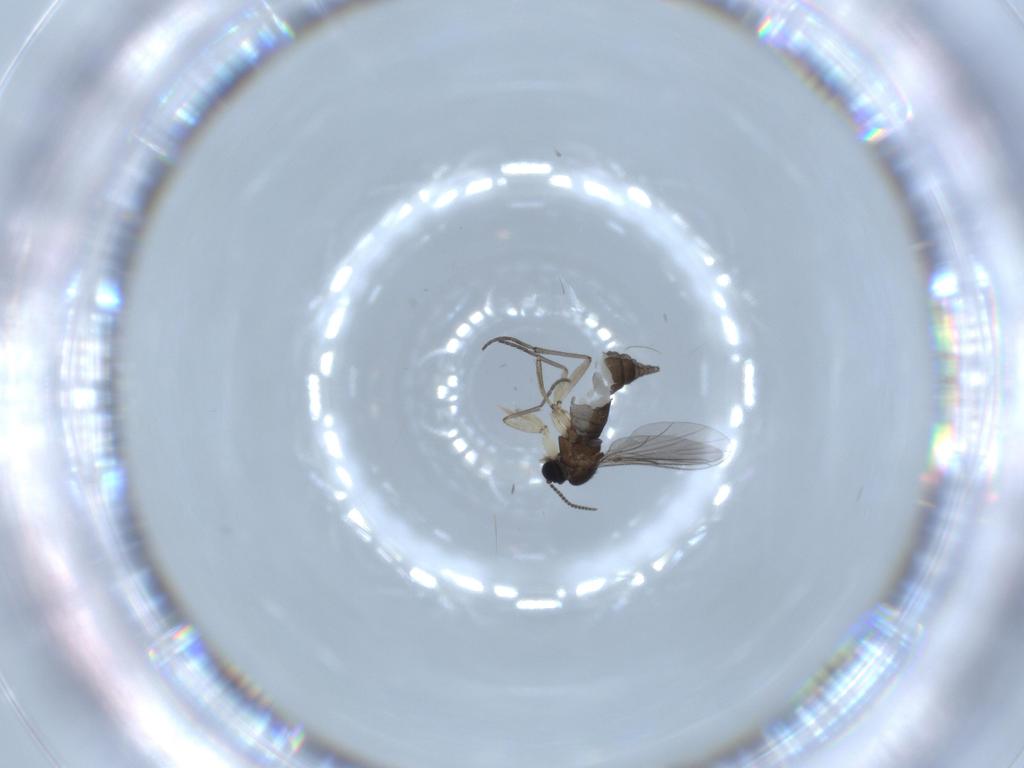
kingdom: Animalia
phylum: Arthropoda
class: Insecta
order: Diptera
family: Sciaridae
